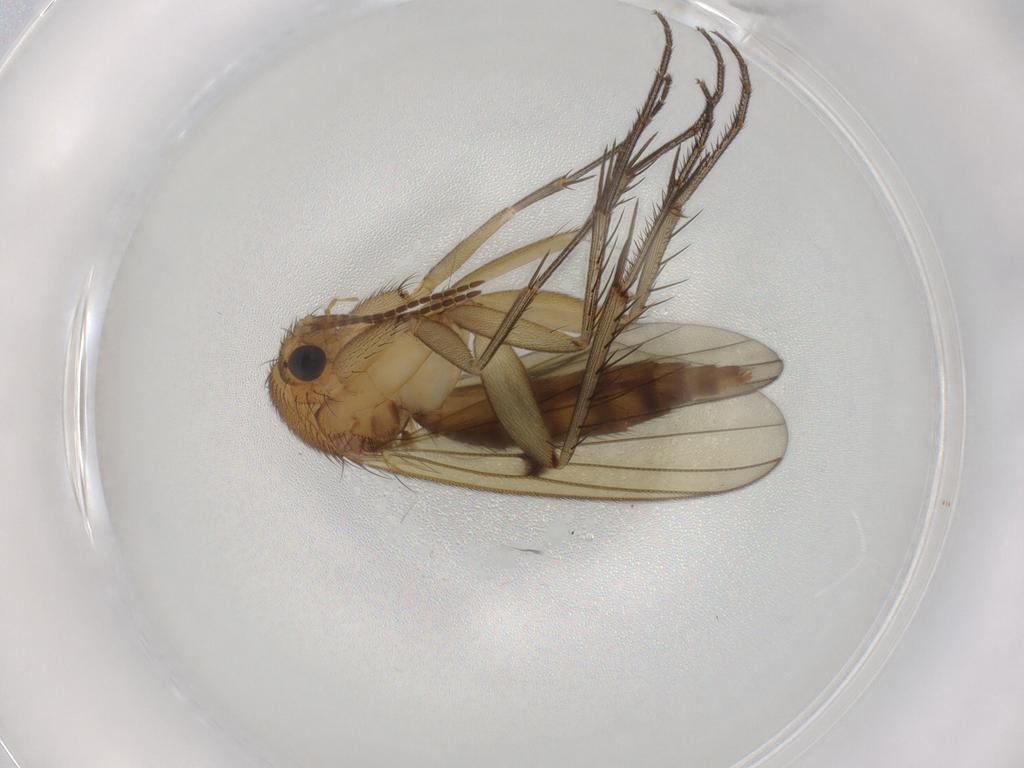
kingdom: Animalia
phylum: Arthropoda
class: Insecta
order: Diptera
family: Mycetophilidae
